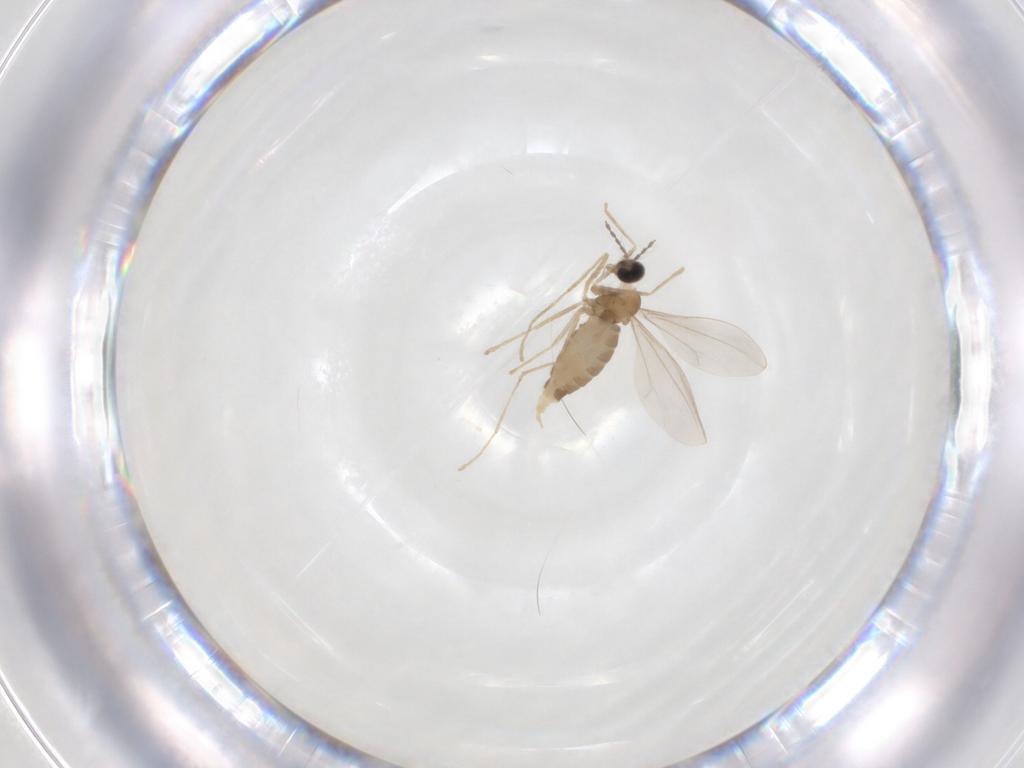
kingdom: Animalia
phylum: Arthropoda
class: Insecta
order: Diptera
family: Cecidomyiidae
